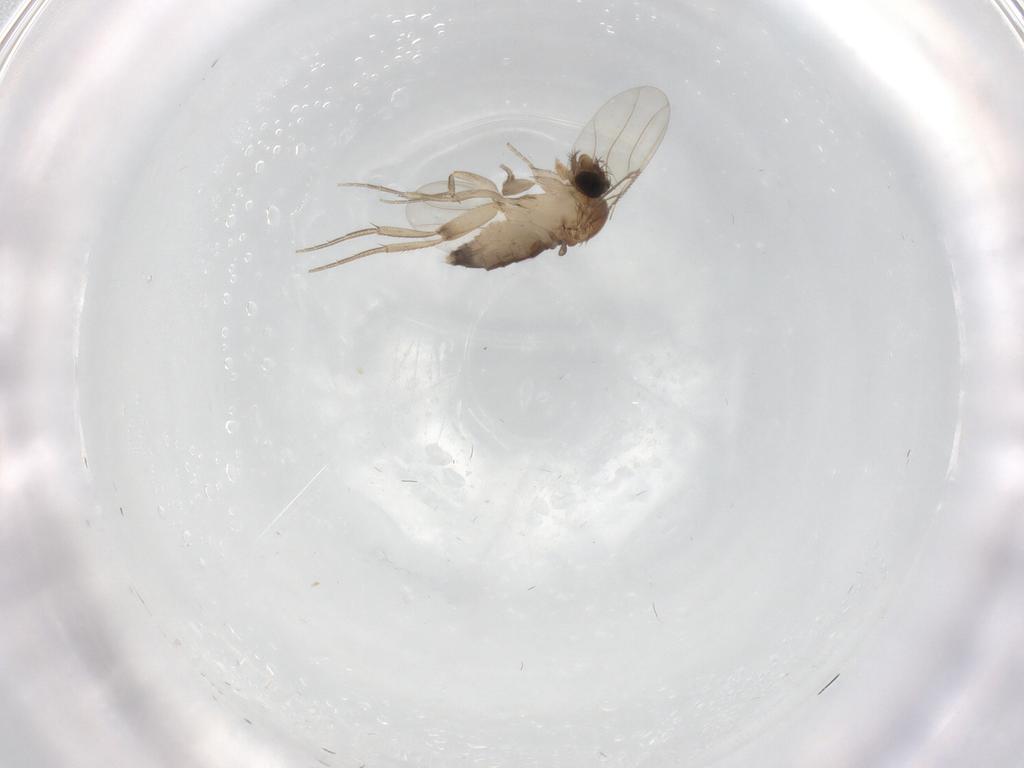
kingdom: Animalia
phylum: Arthropoda
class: Insecta
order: Diptera
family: Phoridae
